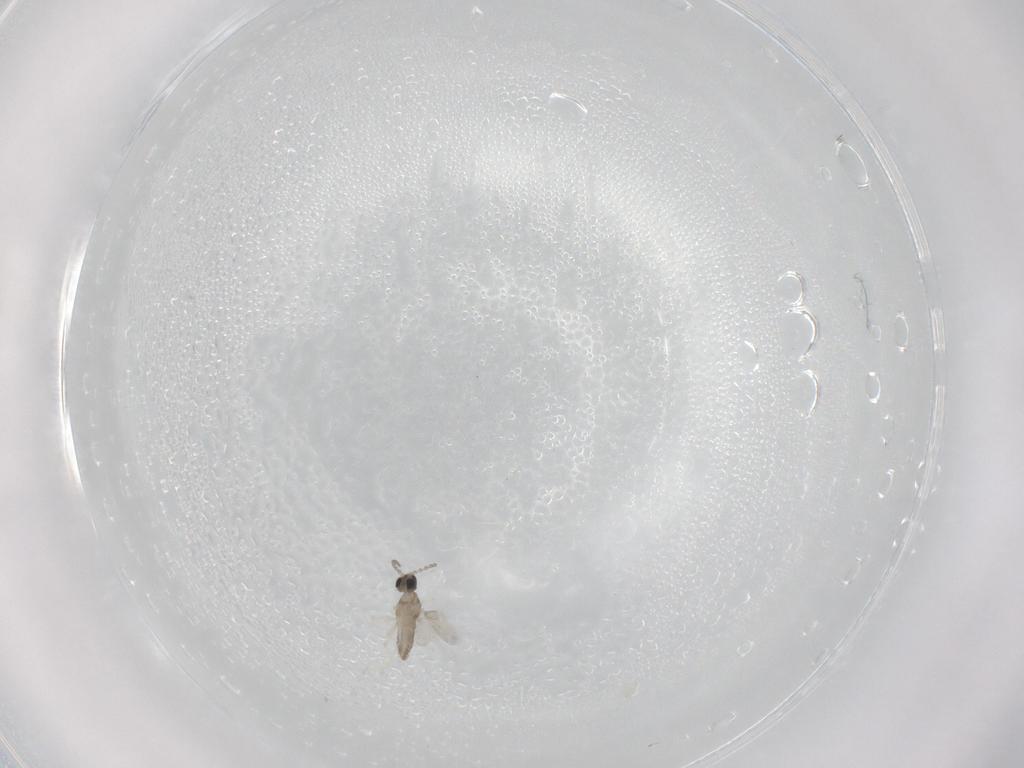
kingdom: Animalia
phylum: Arthropoda
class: Insecta
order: Diptera
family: Cecidomyiidae
